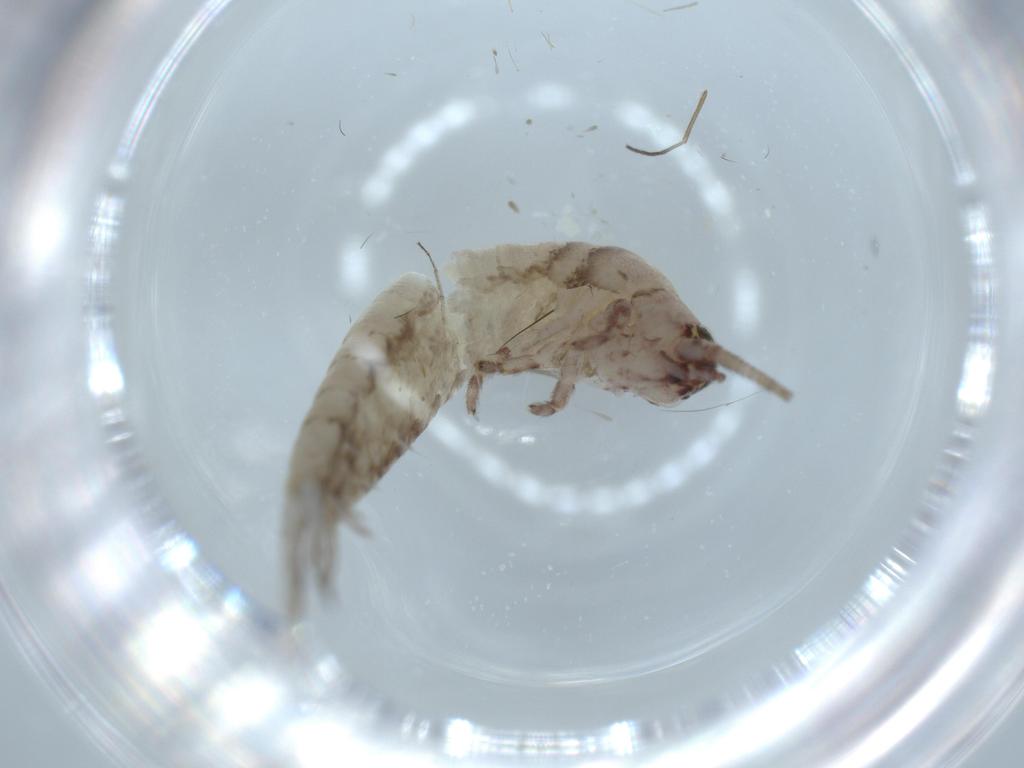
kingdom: Animalia
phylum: Arthropoda
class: Insecta
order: Archaeognatha
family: Machilidae
